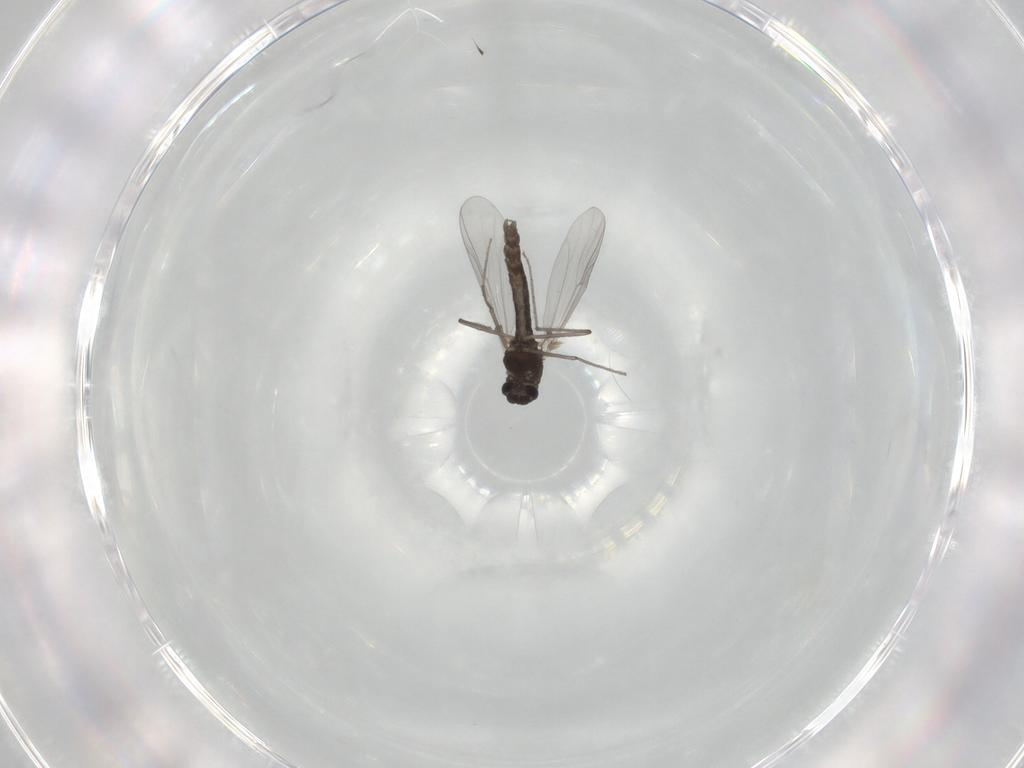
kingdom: Animalia
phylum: Arthropoda
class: Insecta
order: Diptera
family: Chironomidae
